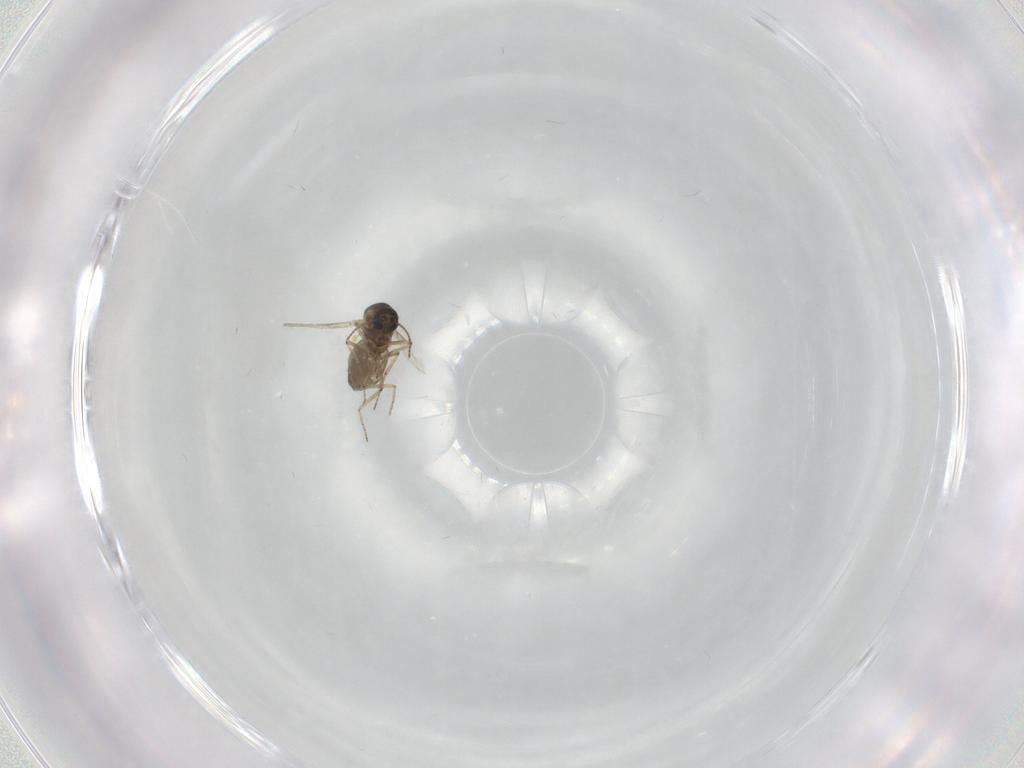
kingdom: Animalia
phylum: Arthropoda
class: Insecta
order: Diptera
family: Ceratopogonidae
